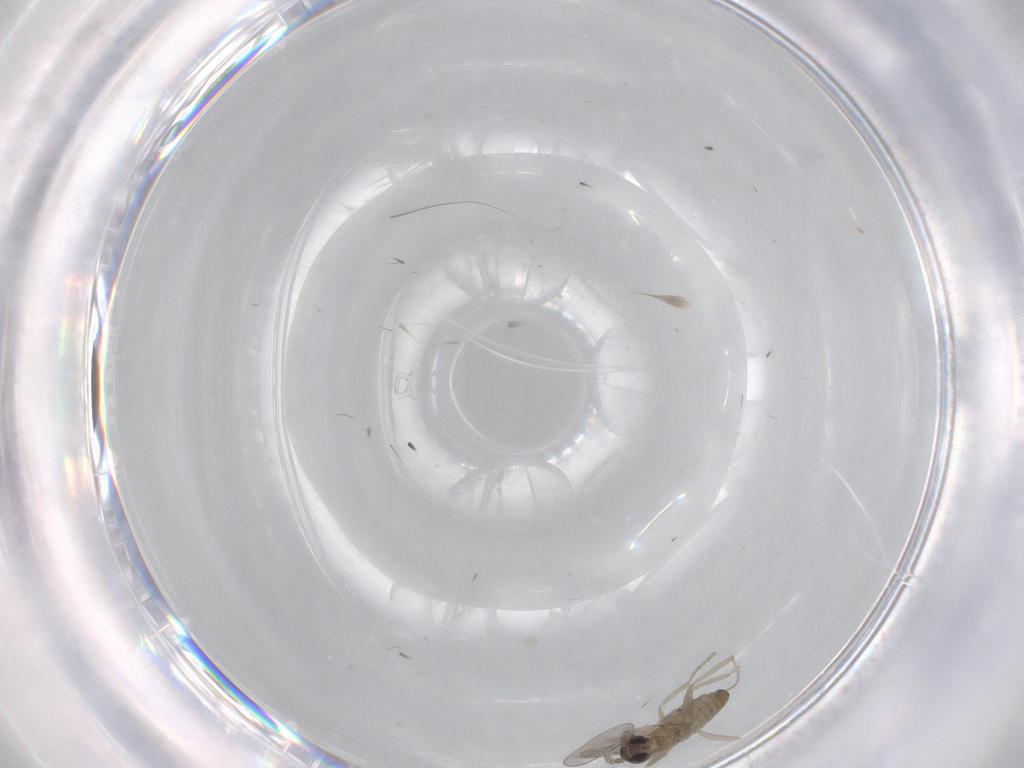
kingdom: Animalia
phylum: Arthropoda
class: Insecta
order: Diptera
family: Cecidomyiidae
